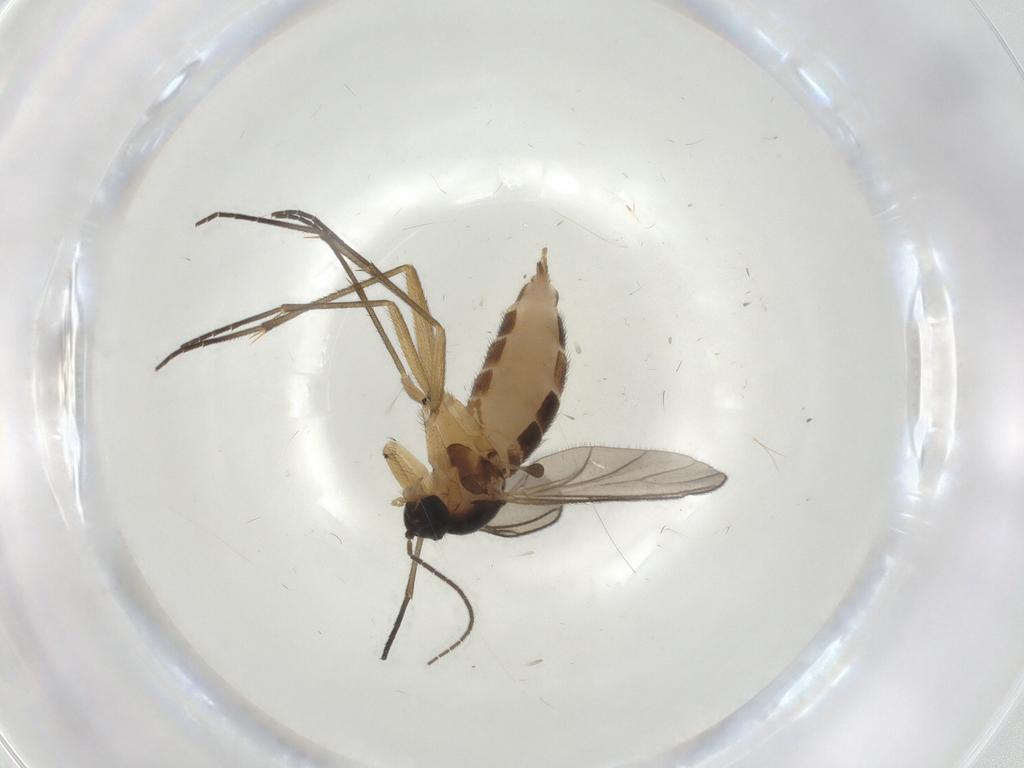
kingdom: Animalia
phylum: Arthropoda
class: Insecta
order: Diptera
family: Sciaridae
